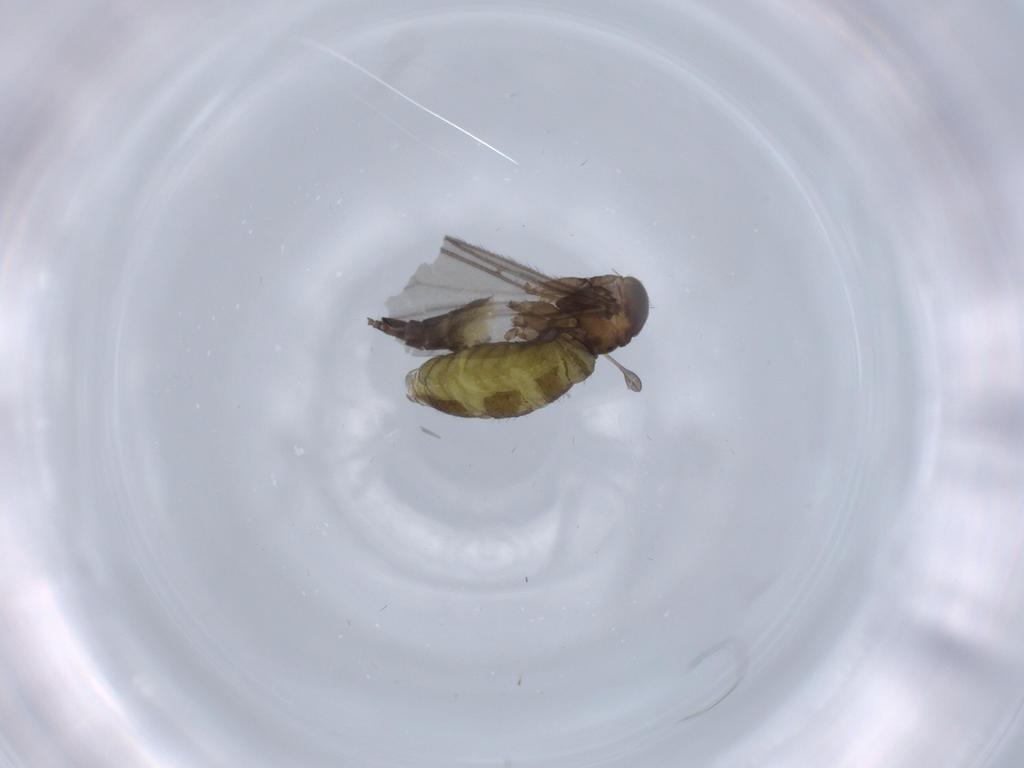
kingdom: Animalia
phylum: Arthropoda
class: Insecta
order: Diptera
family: Sciaridae
